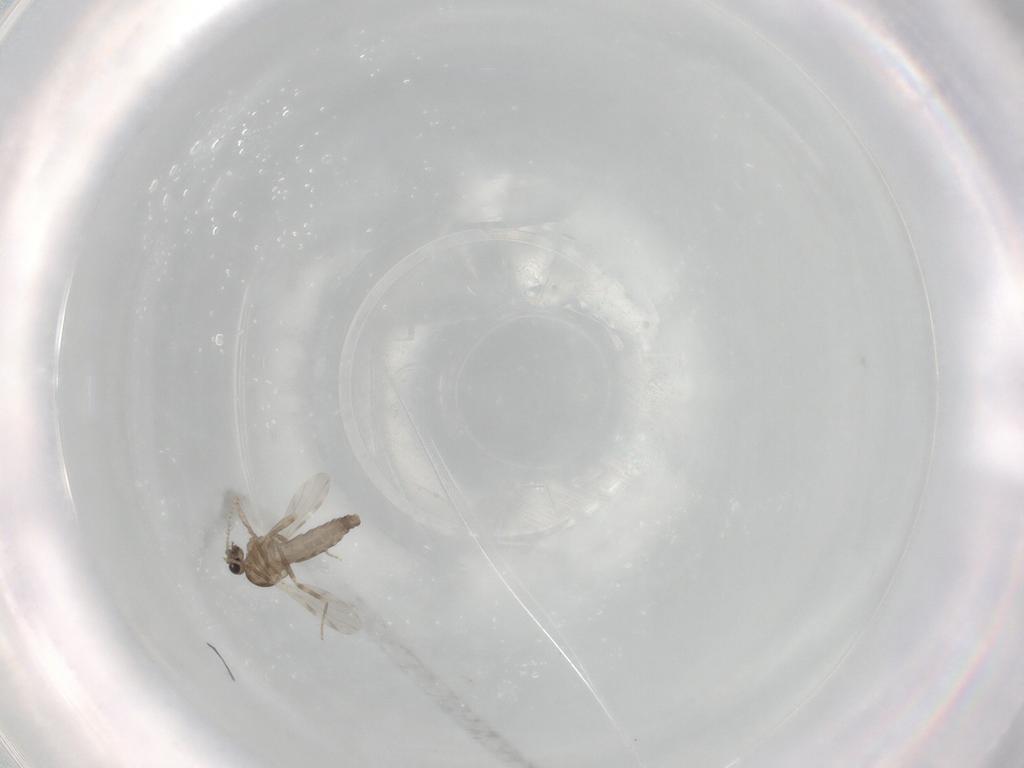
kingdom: Animalia
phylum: Arthropoda
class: Insecta
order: Diptera
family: Ceratopogonidae
